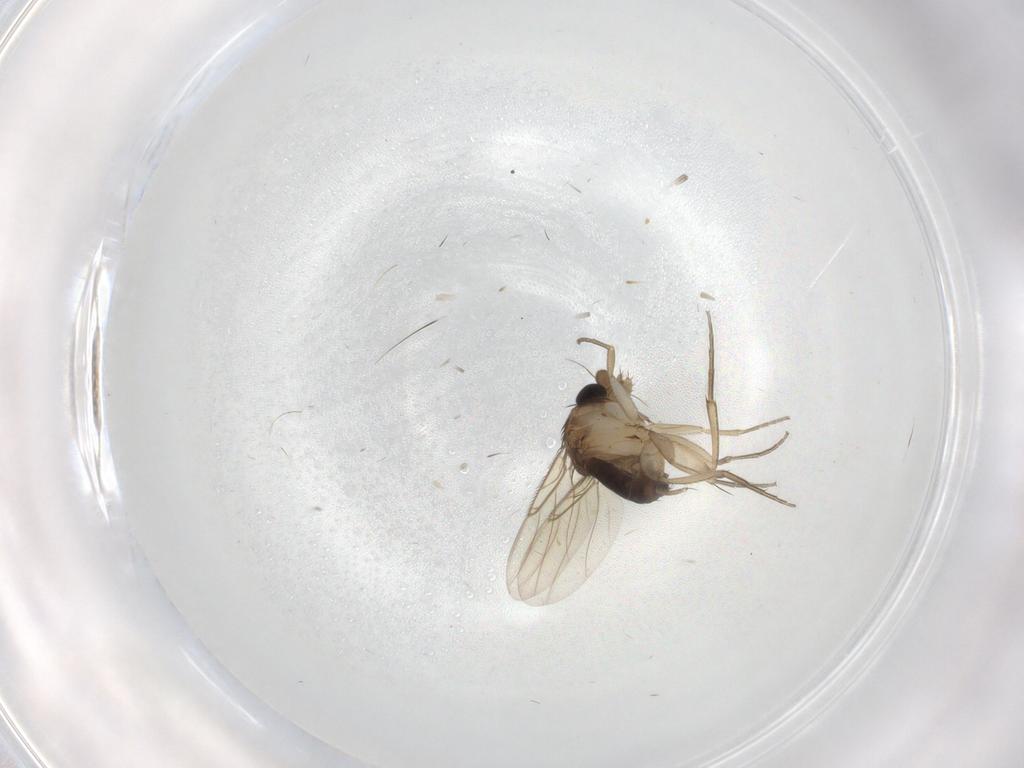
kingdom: Animalia
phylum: Arthropoda
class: Insecta
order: Diptera
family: Phoridae
